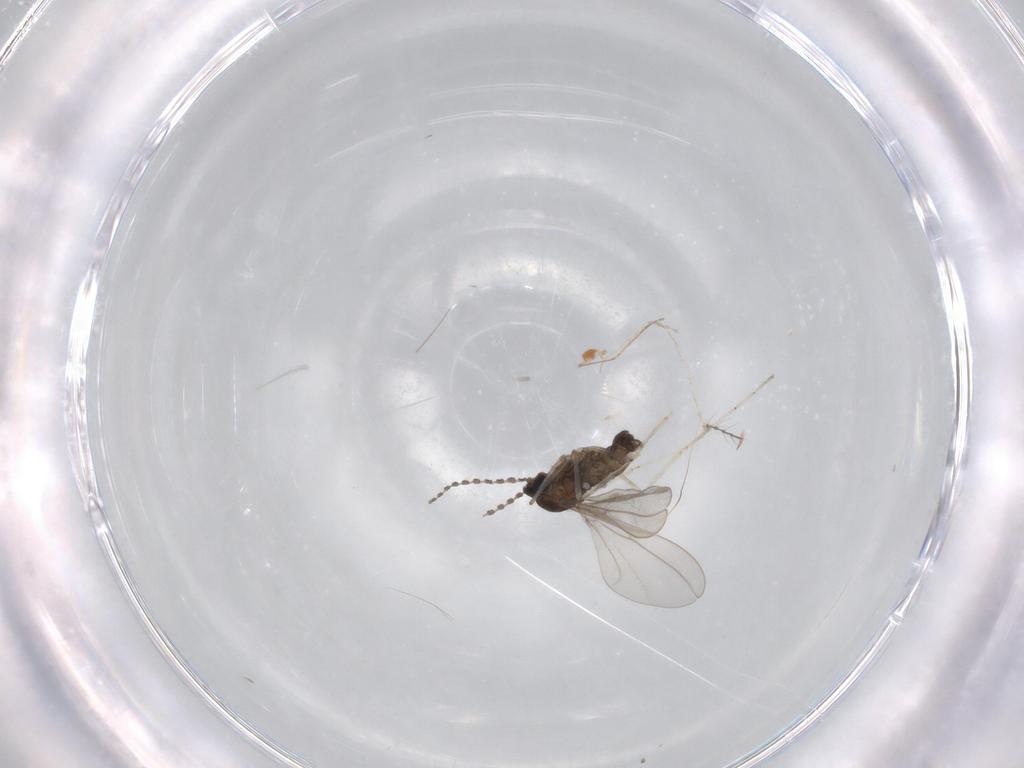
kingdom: Animalia
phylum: Arthropoda
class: Insecta
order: Diptera
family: Cecidomyiidae
